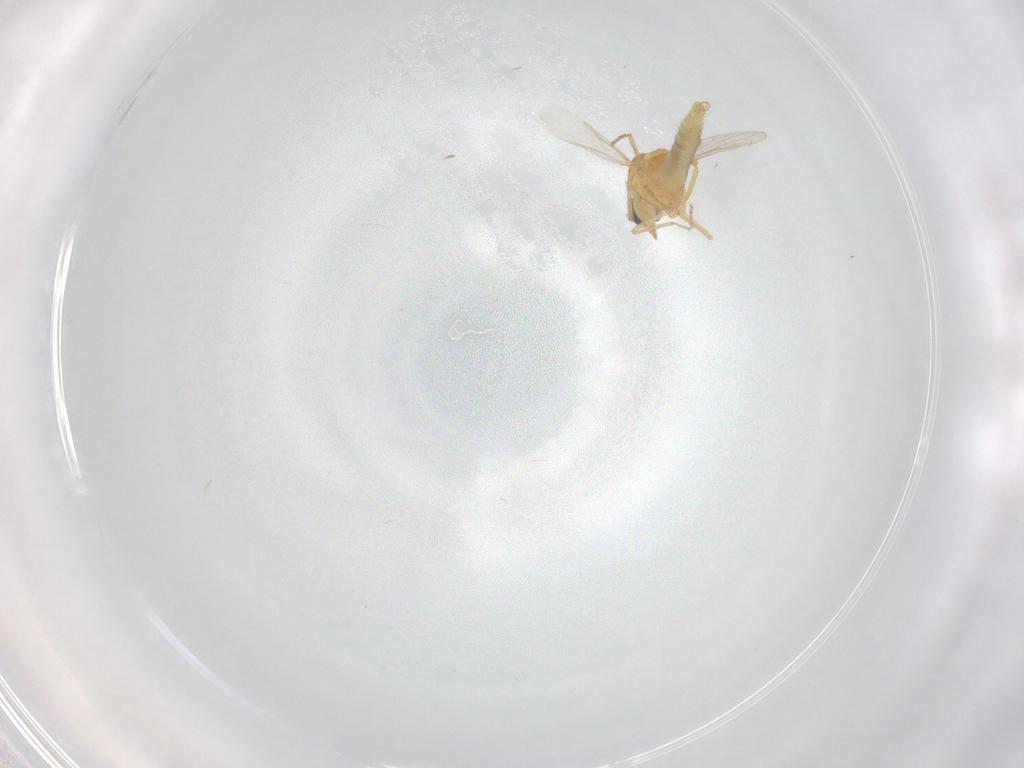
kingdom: Animalia
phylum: Arthropoda
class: Insecta
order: Diptera
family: Ceratopogonidae
